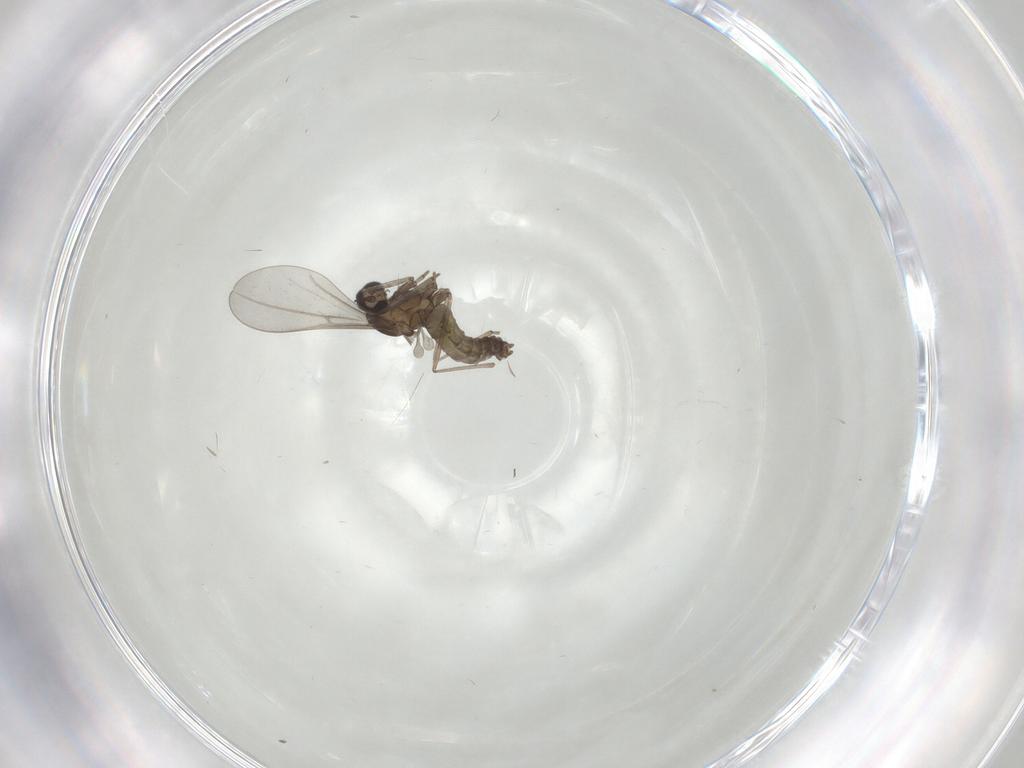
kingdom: Animalia
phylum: Arthropoda
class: Insecta
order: Diptera
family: Cecidomyiidae
